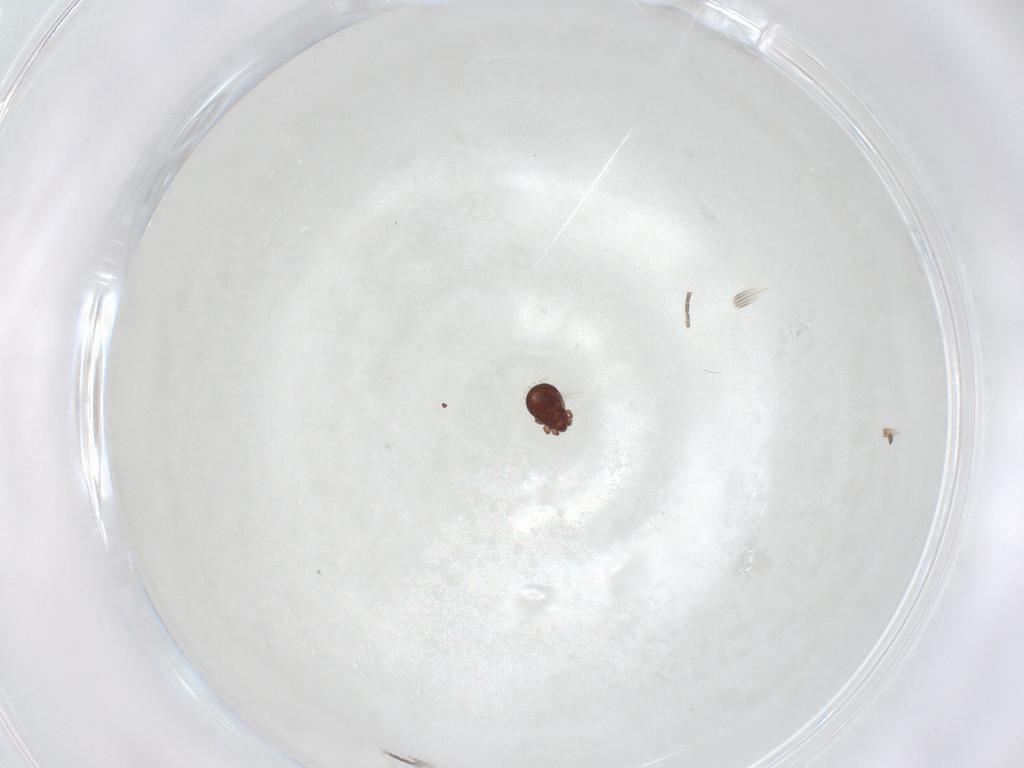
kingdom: Animalia
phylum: Arthropoda
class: Arachnida
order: Sarcoptiformes
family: Scheloribatidae
